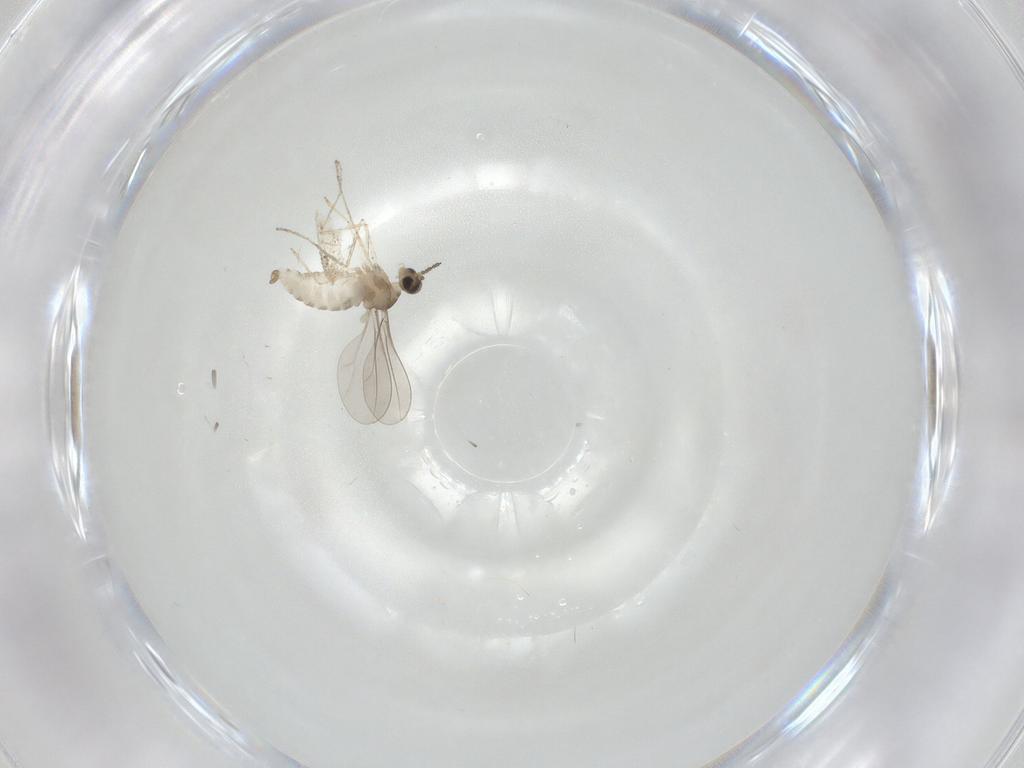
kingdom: Animalia
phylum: Arthropoda
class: Insecta
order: Diptera
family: Cecidomyiidae
